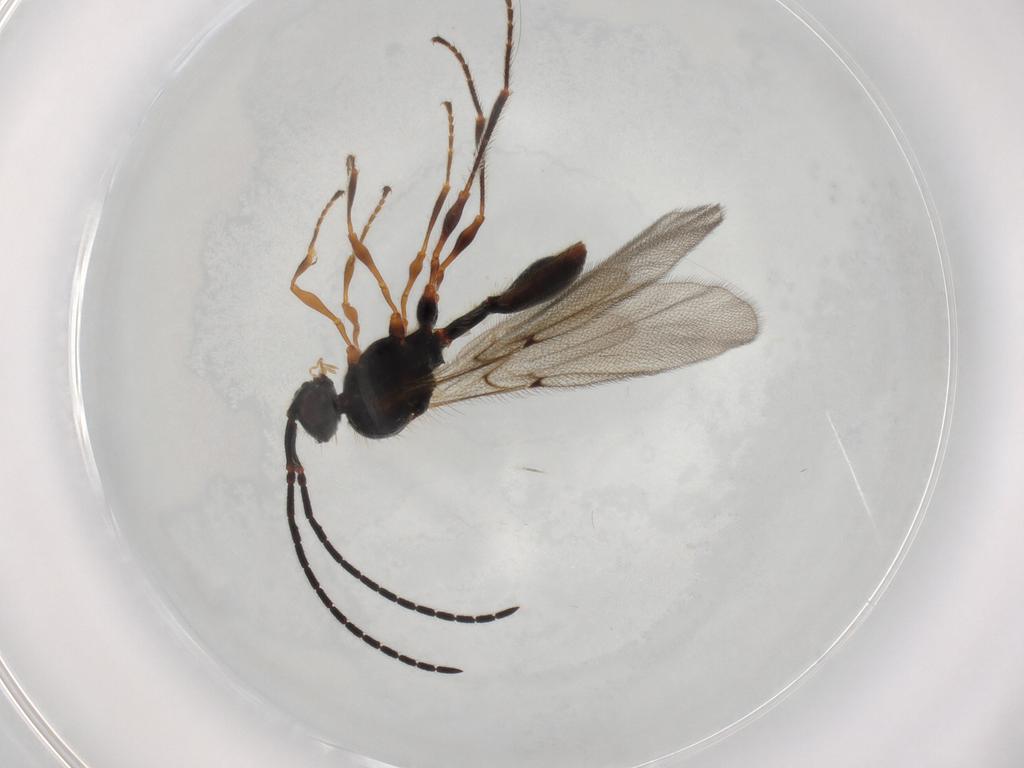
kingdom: Animalia
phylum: Arthropoda
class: Insecta
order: Hymenoptera
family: Diapriidae
